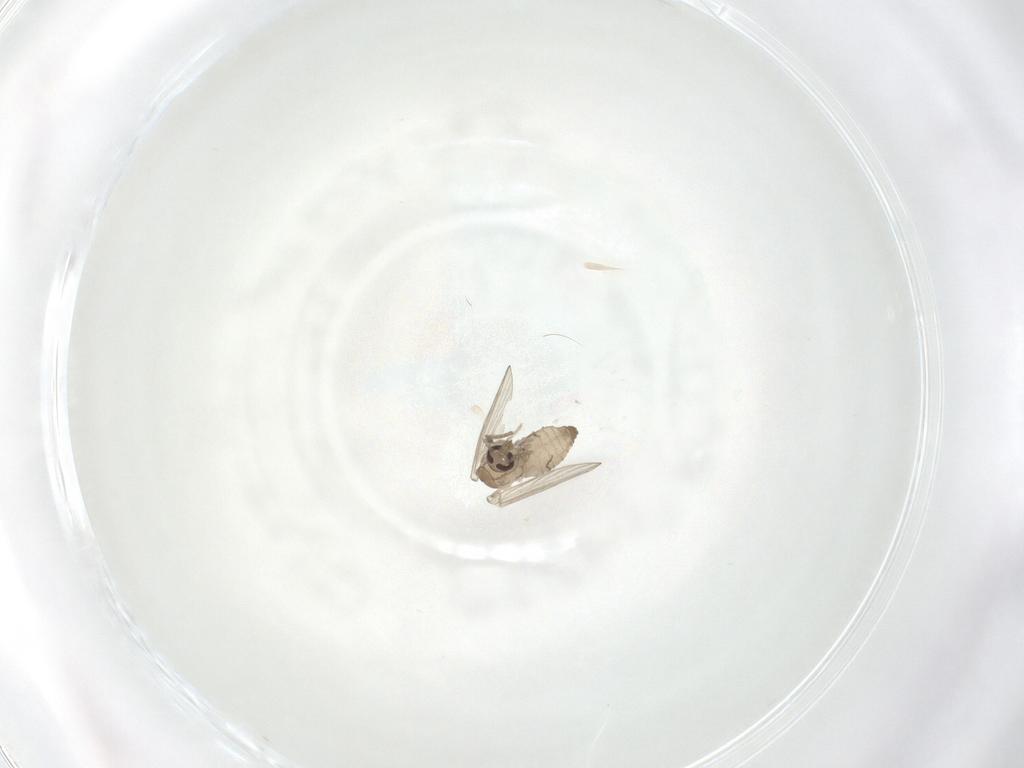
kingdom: Animalia
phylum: Arthropoda
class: Insecta
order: Diptera
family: Psychodidae
